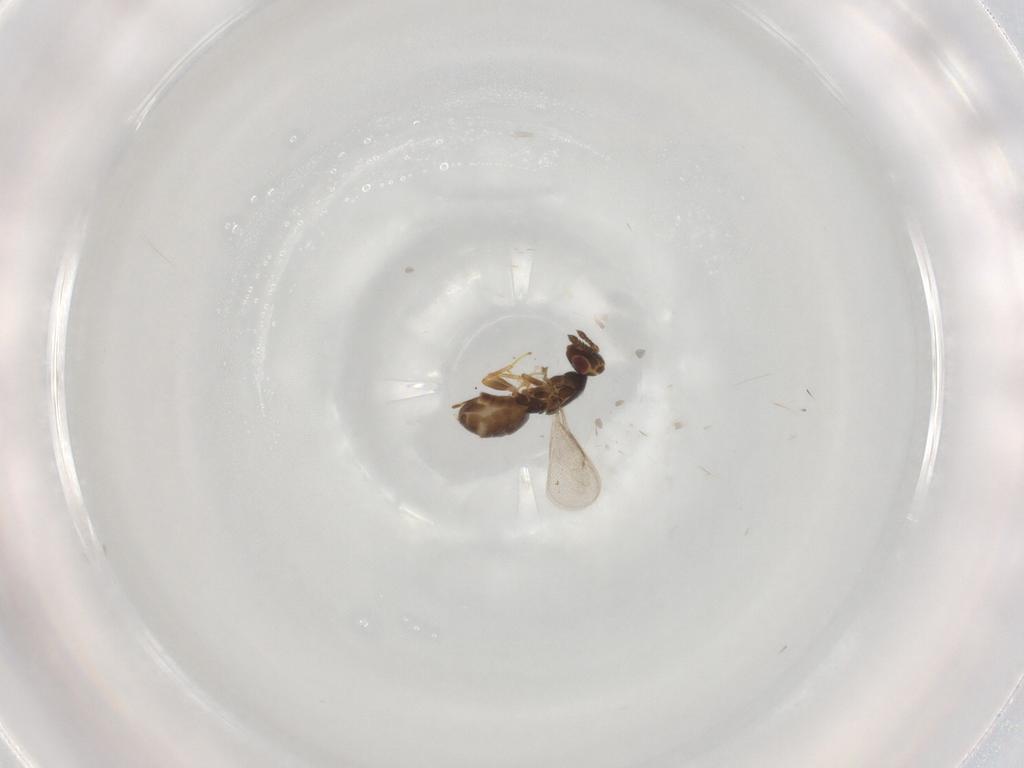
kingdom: Animalia
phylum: Arthropoda
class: Insecta
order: Hymenoptera
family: Eulophidae
